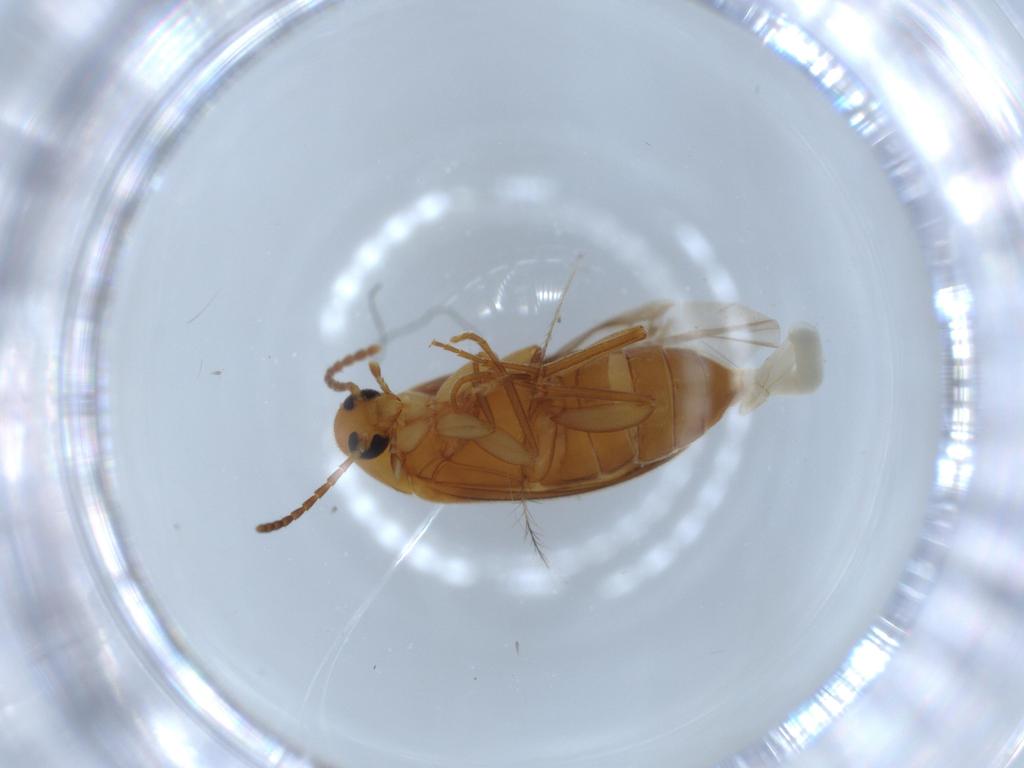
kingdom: Animalia
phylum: Arthropoda
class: Insecta
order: Coleoptera
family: Scraptiidae
